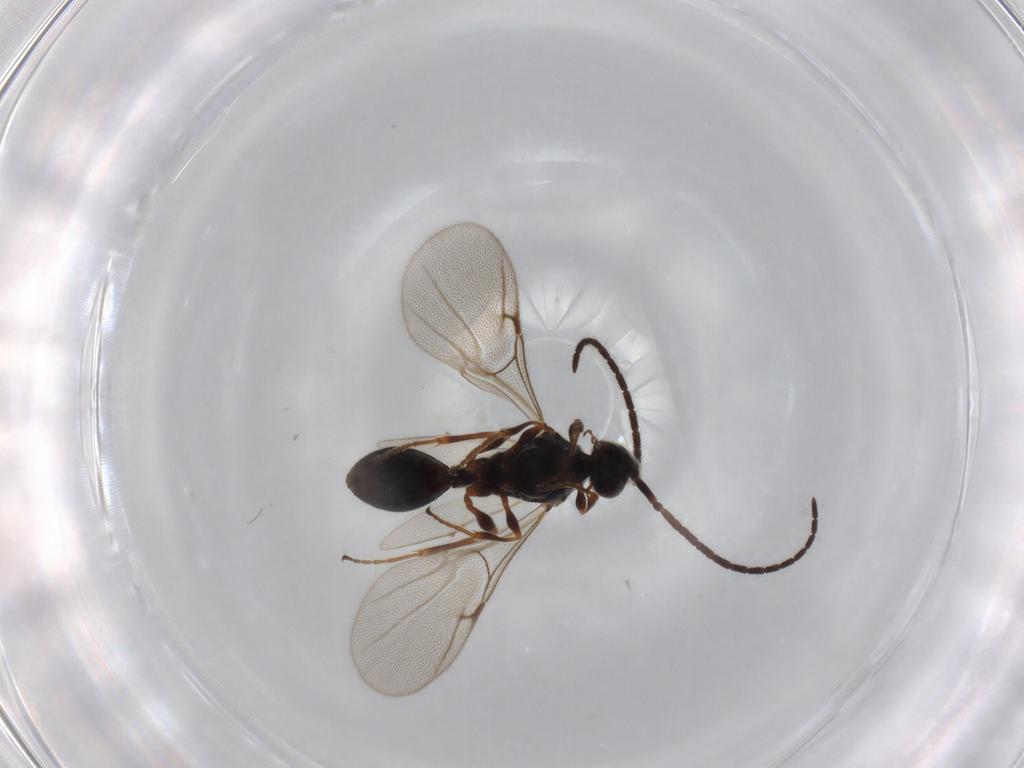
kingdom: Animalia
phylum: Arthropoda
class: Insecta
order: Hymenoptera
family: Diapriidae
